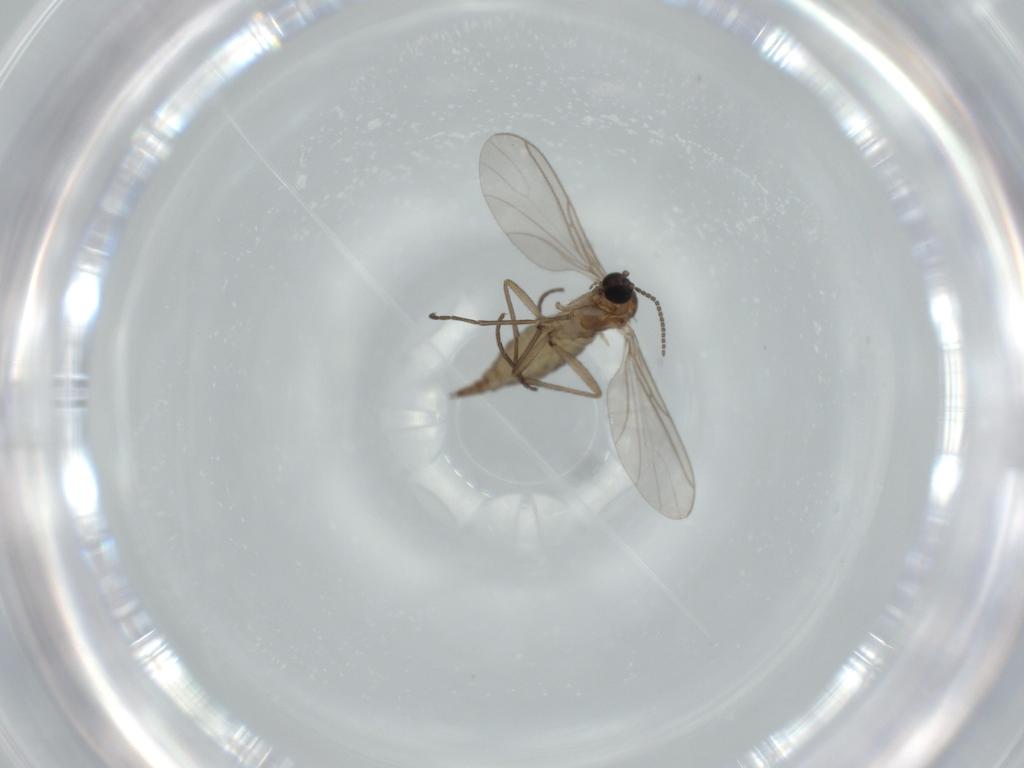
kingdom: Animalia
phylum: Arthropoda
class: Insecta
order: Diptera
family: Sciaridae
